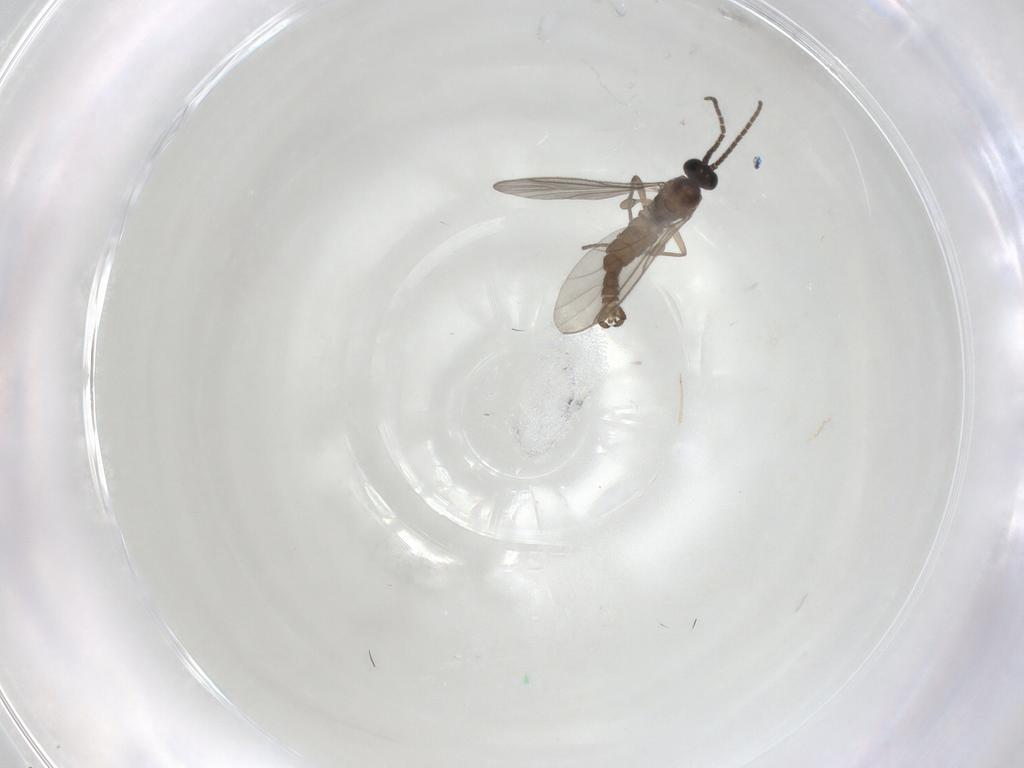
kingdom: Animalia
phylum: Arthropoda
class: Insecta
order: Diptera
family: Sciaridae
